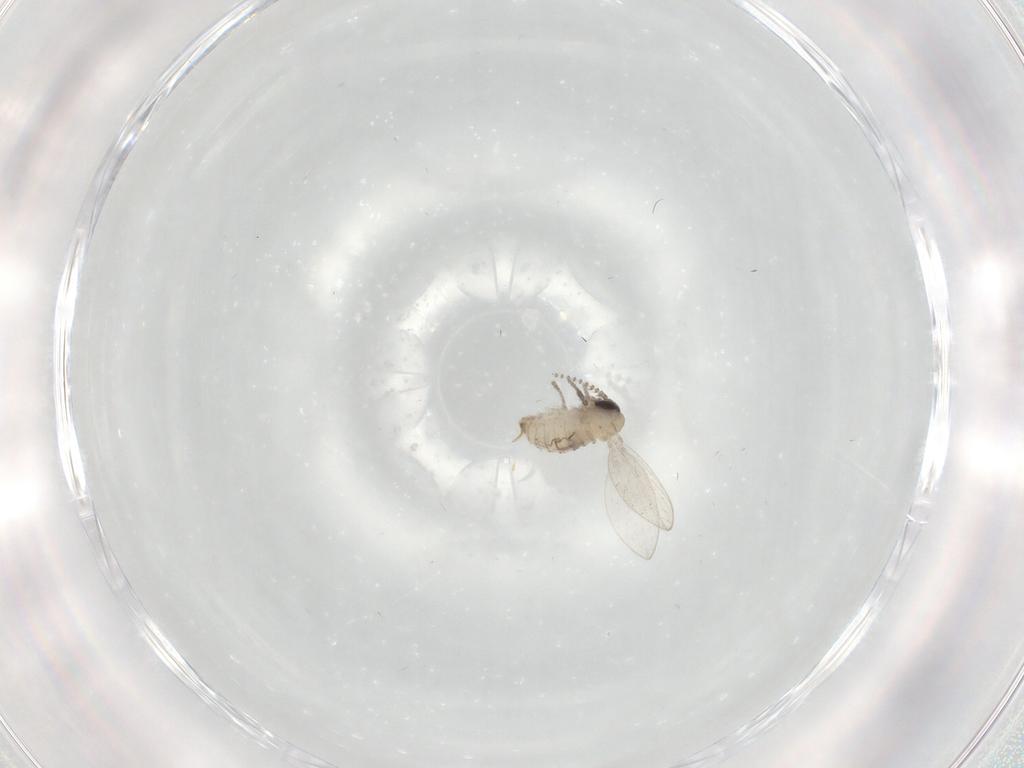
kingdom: Animalia
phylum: Arthropoda
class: Insecta
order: Diptera
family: Psychodidae
